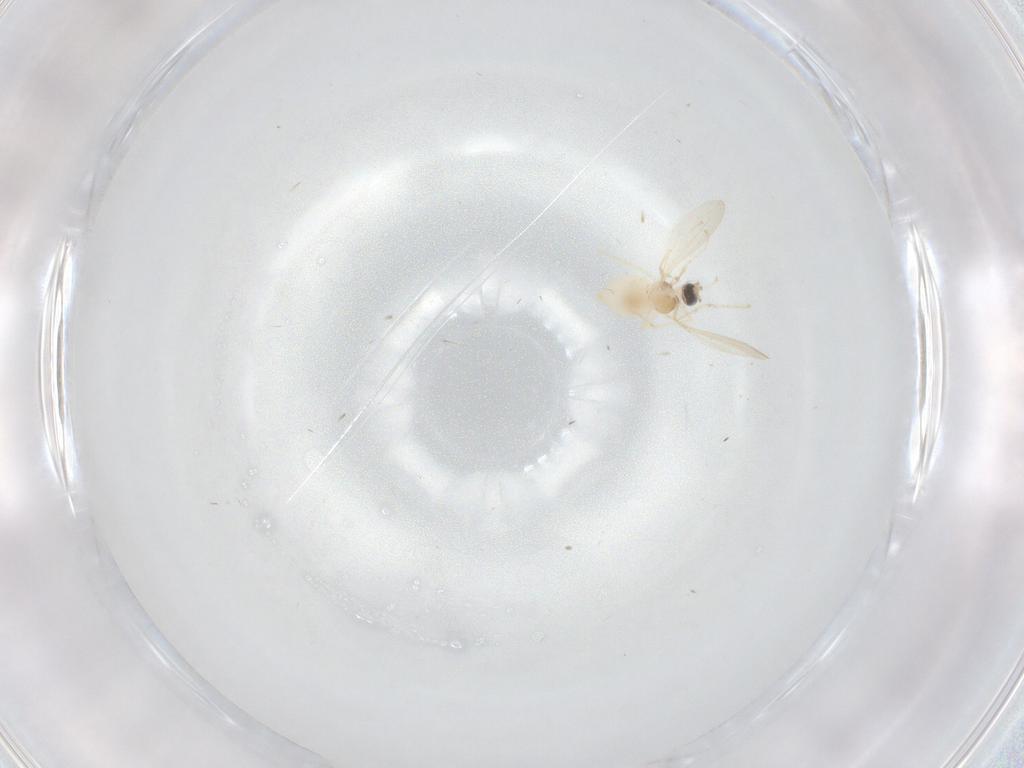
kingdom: Animalia
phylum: Arthropoda
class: Insecta
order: Diptera
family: Cecidomyiidae
